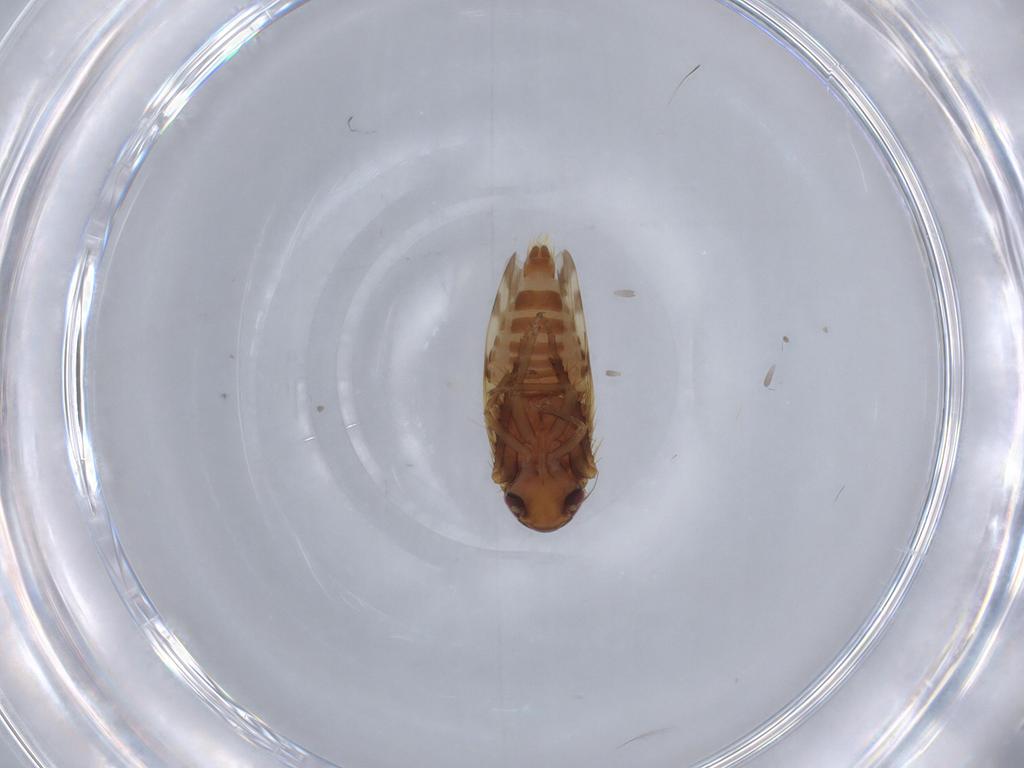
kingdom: Animalia
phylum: Arthropoda
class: Insecta
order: Hemiptera
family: Cicadellidae
